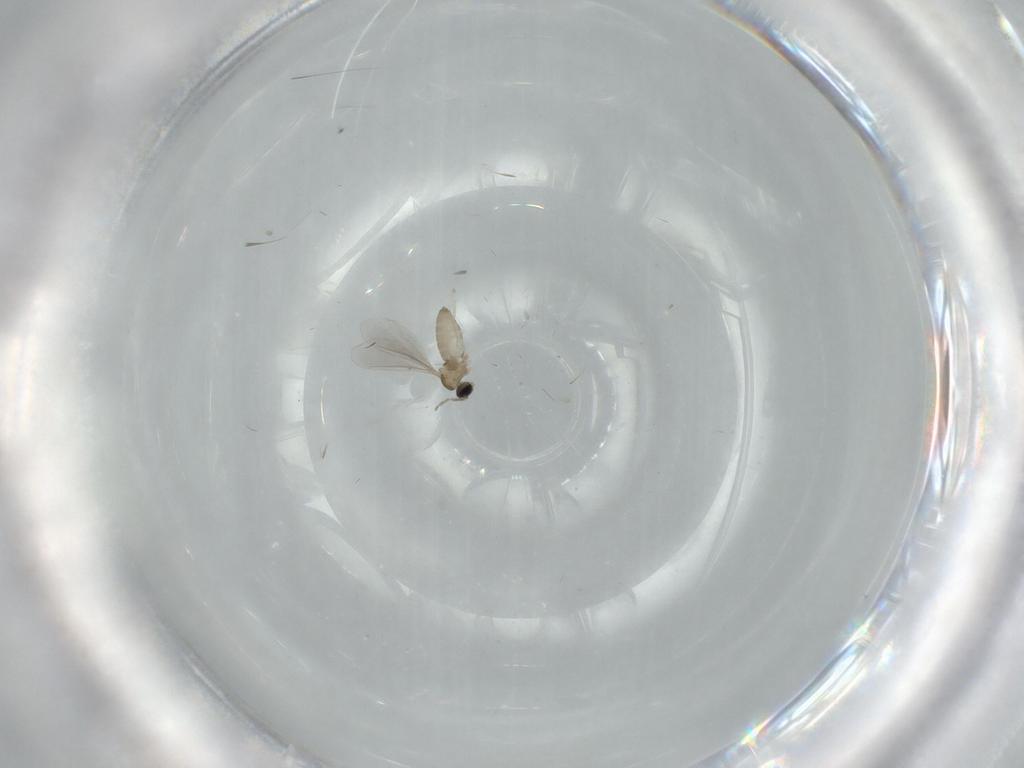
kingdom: Animalia
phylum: Arthropoda
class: Insecta
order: Diptera
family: Cecidomyiidae
